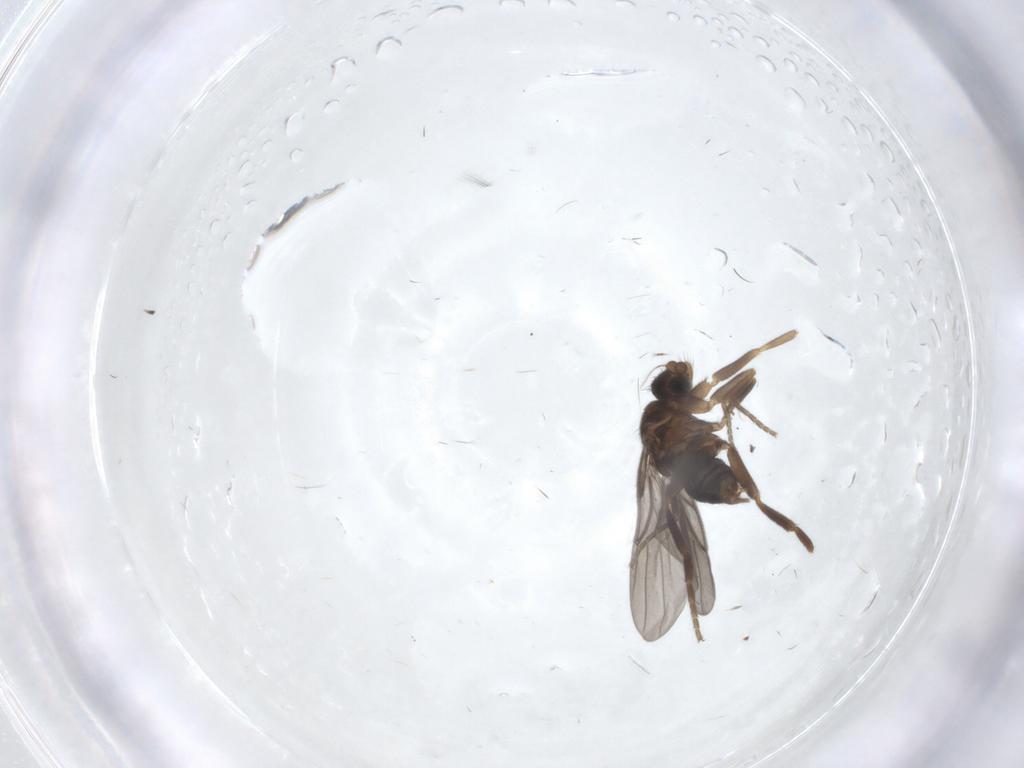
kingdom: Animalia
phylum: Arthropoda
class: Insecta
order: Diptera
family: Phoridae
